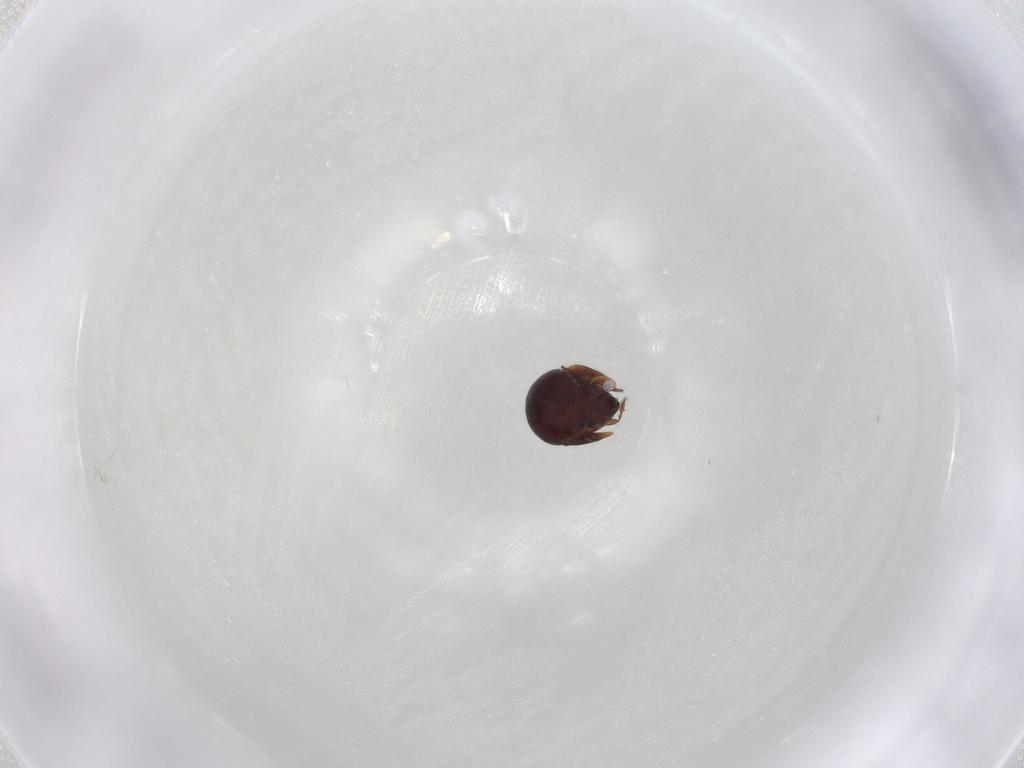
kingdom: Animalia
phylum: Arthropoda
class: Arachnida
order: Sarcoptiformes
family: Galumnidae
